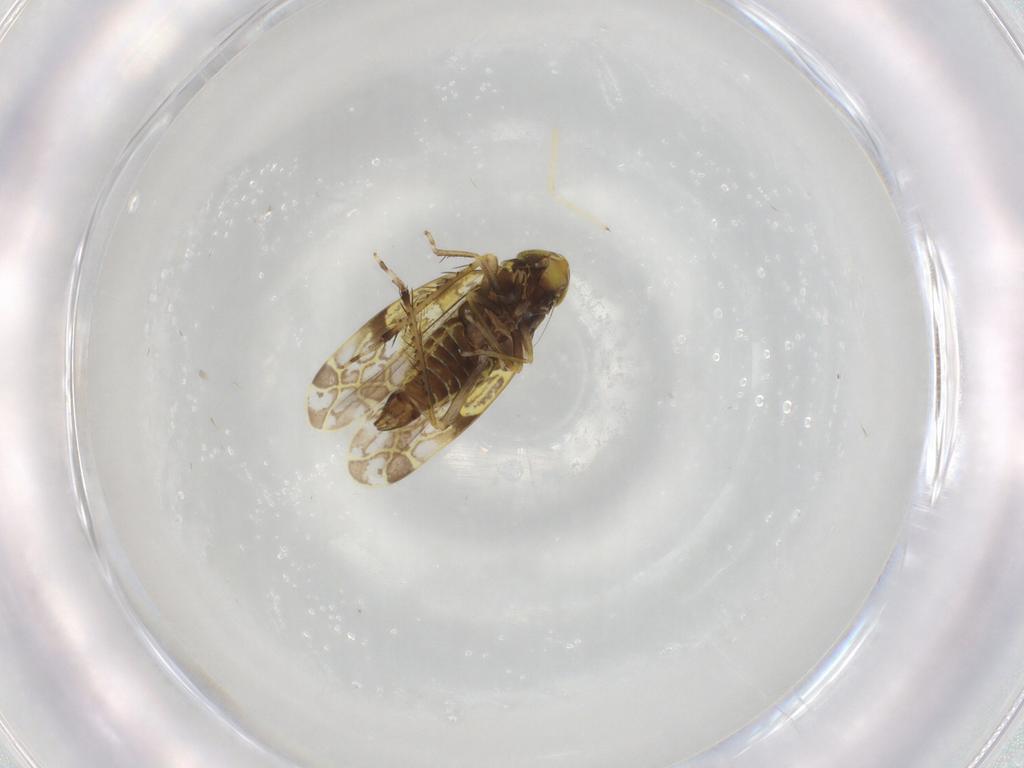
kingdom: Animalia
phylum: Arthropoda
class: Insecta
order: Hemiptera
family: Cicadellidae
